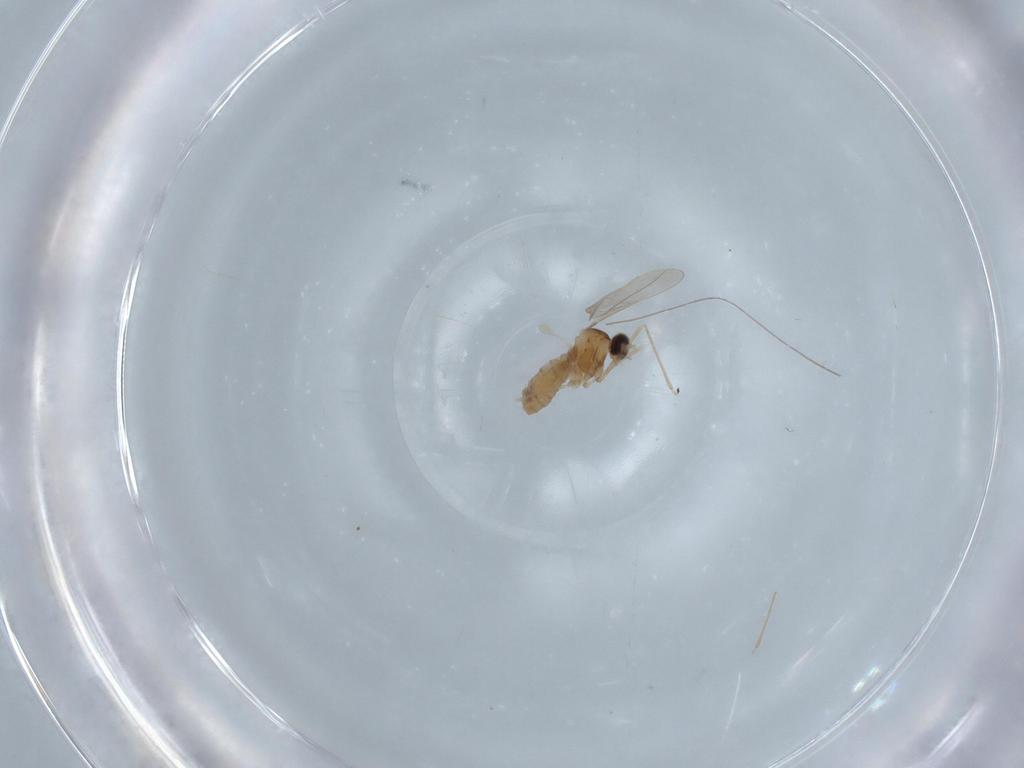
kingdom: Animalia
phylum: Arthropoda
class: Insecta
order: Diptera
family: Cecidomyiidae
